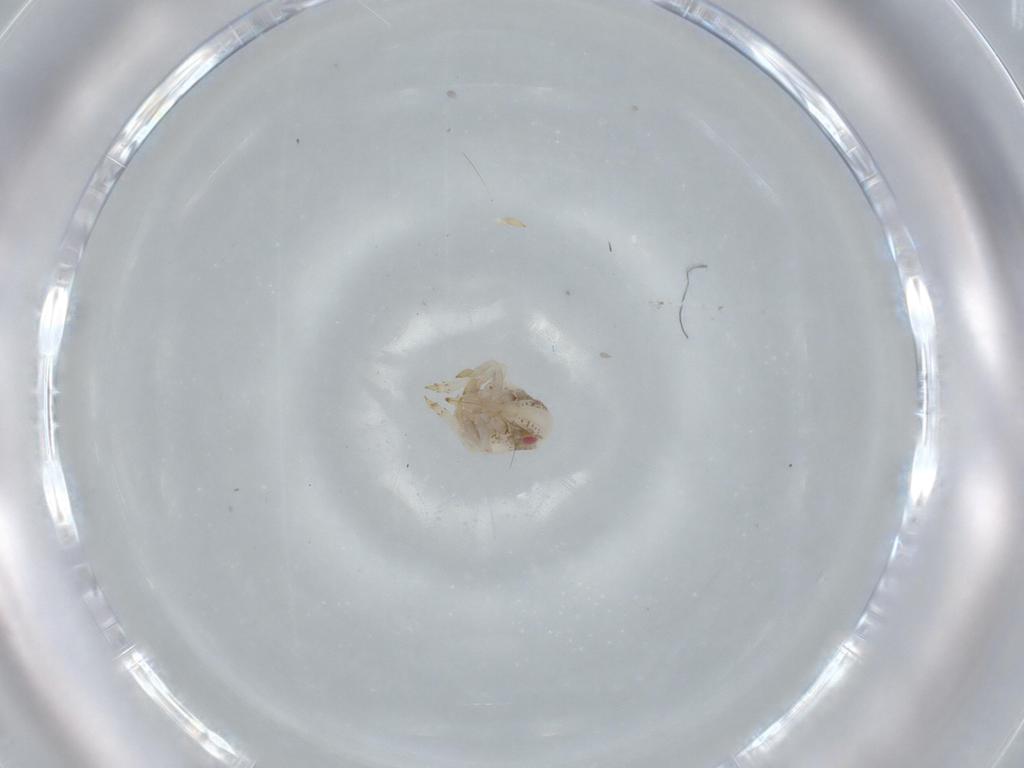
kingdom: Animalia
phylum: Arthropoda
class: Insecta
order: Hemiptera
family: Acanaloniidae
